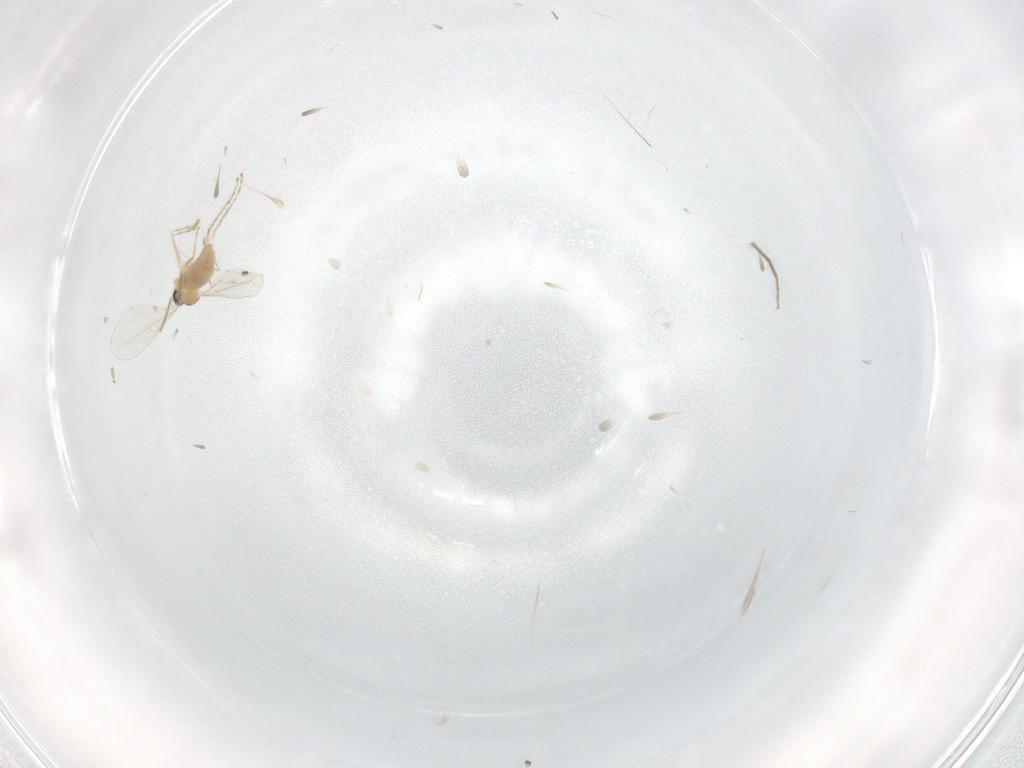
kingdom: Animalia
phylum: Arthropoda
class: Insecta
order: Diptera
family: Chironomidae
